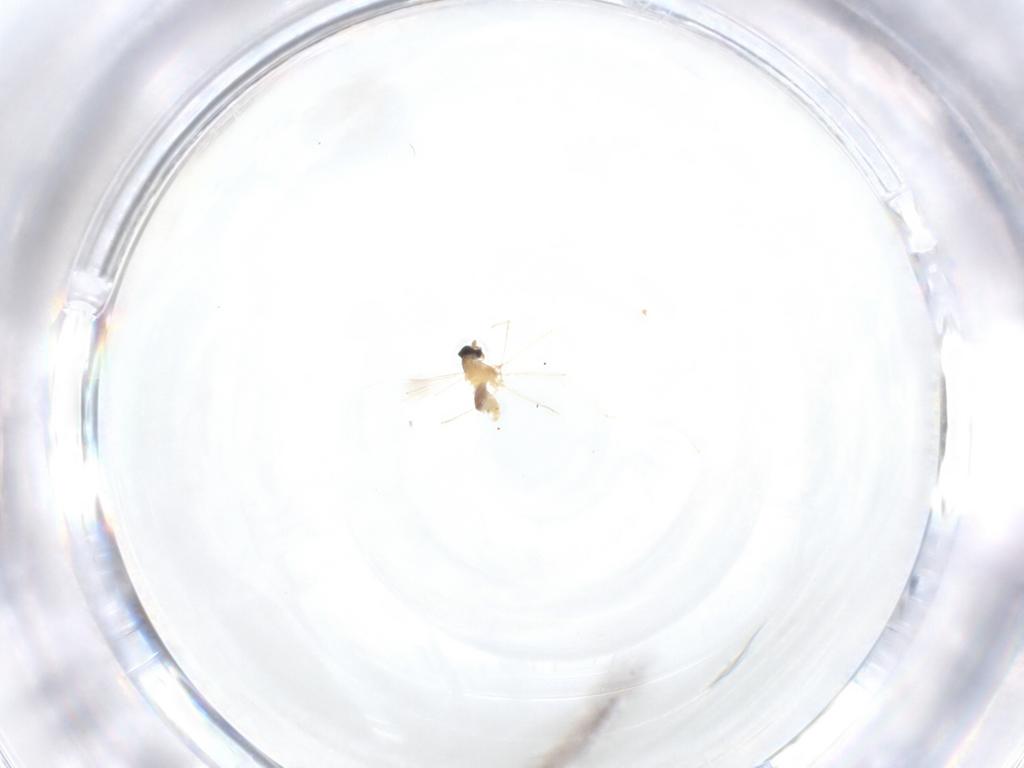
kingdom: Animalia
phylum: Arthropoda
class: Insecta
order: Diptera
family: Cecidomyiidae
